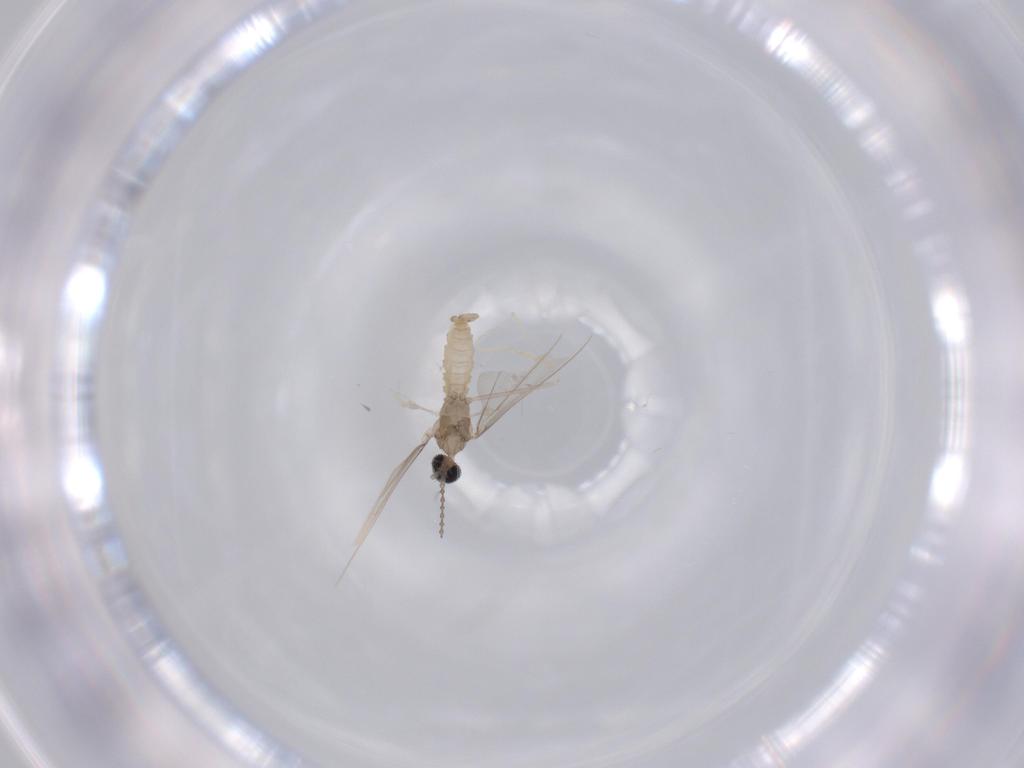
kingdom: Animalia
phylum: Arthropoda
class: Insecta
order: Diptera
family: Cecidomyiidae
